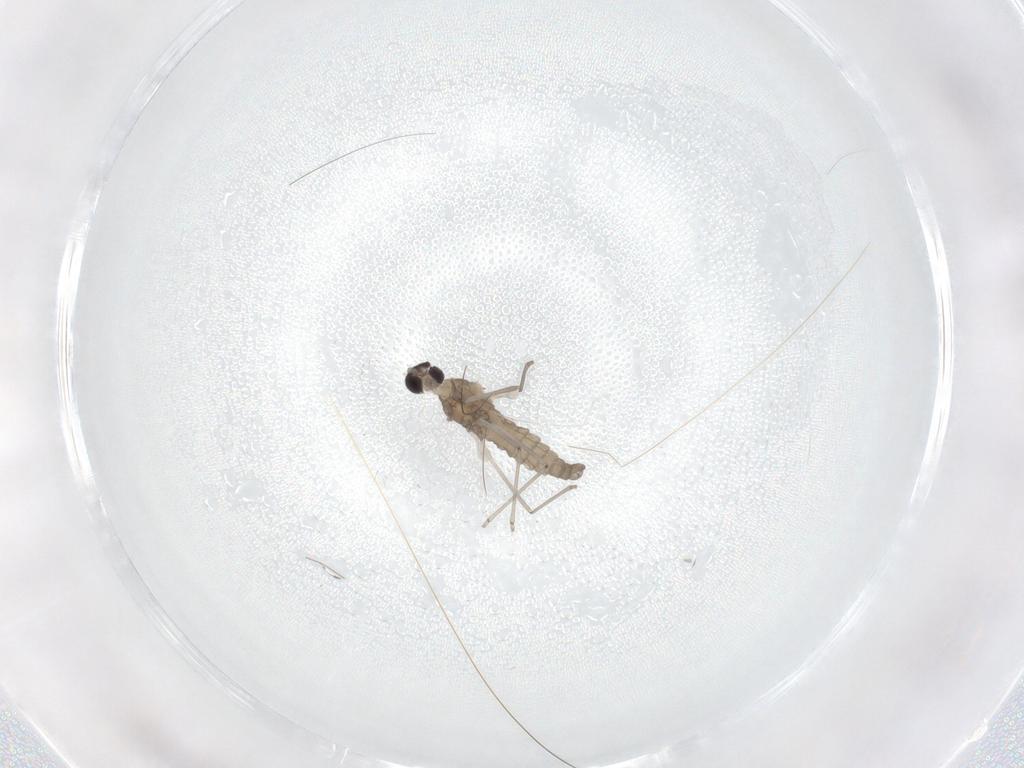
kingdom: Animalia
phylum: Arthropoda
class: Insecta
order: Diptera
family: Cecidomyiidae
